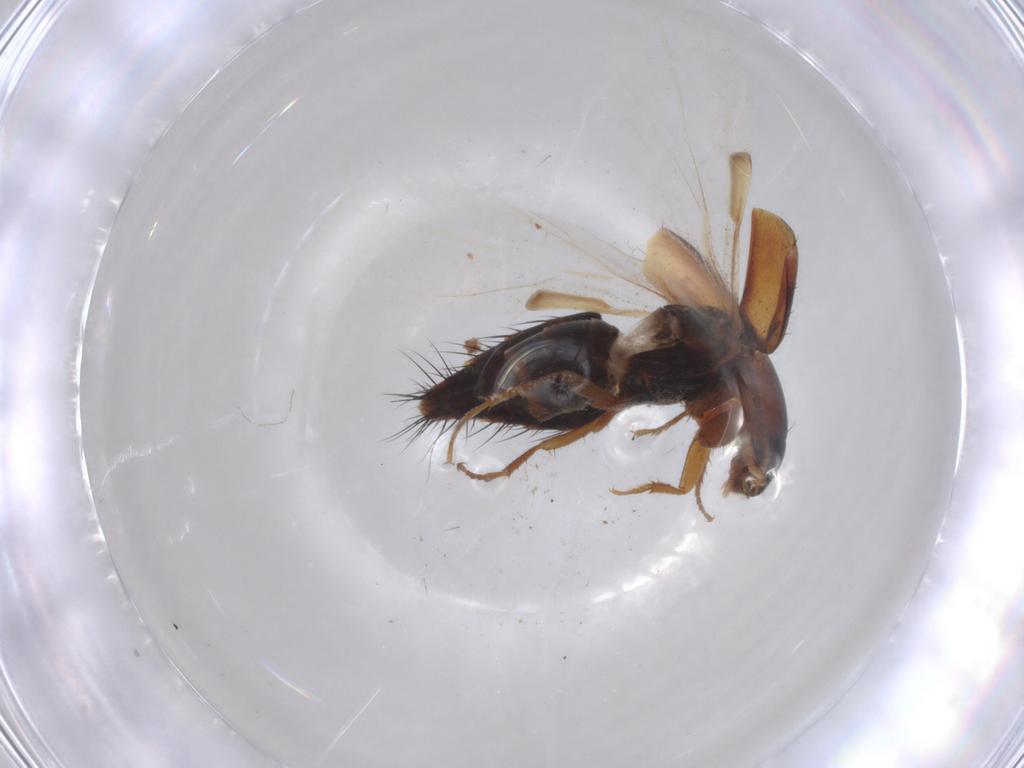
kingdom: Animalia
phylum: Arthropoda
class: Insecta
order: Coleoptera
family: Staphylinidae
